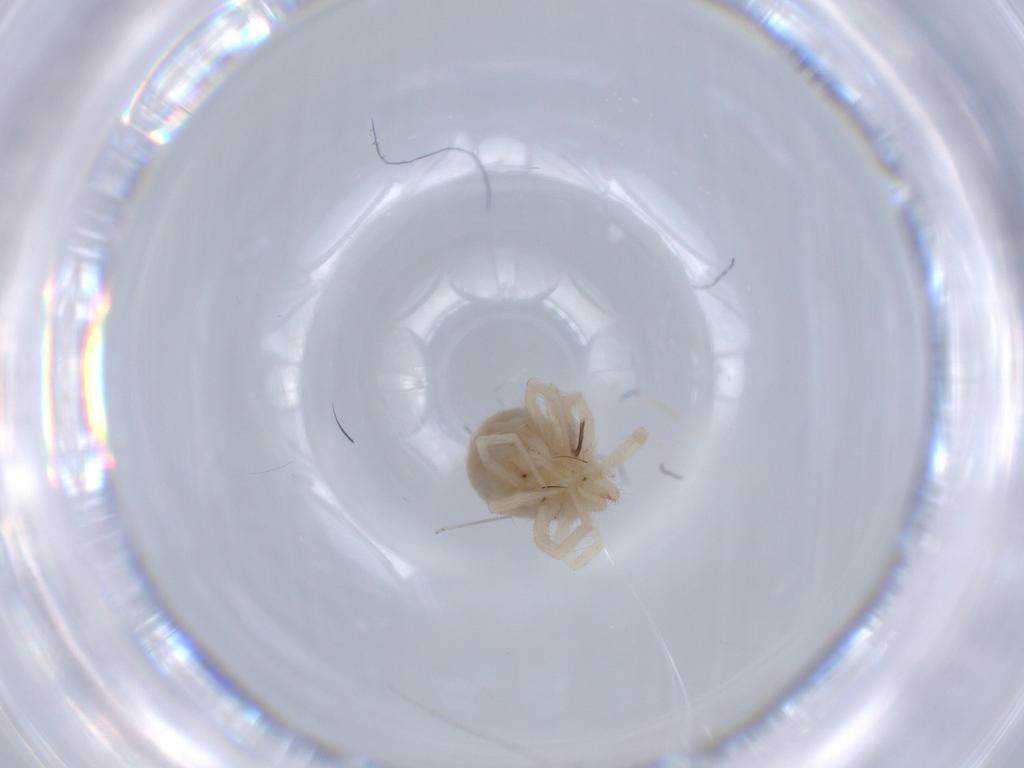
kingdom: Animalia
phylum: Arthropoda
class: Arachnida
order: Trombidiformes
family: Anystidae
